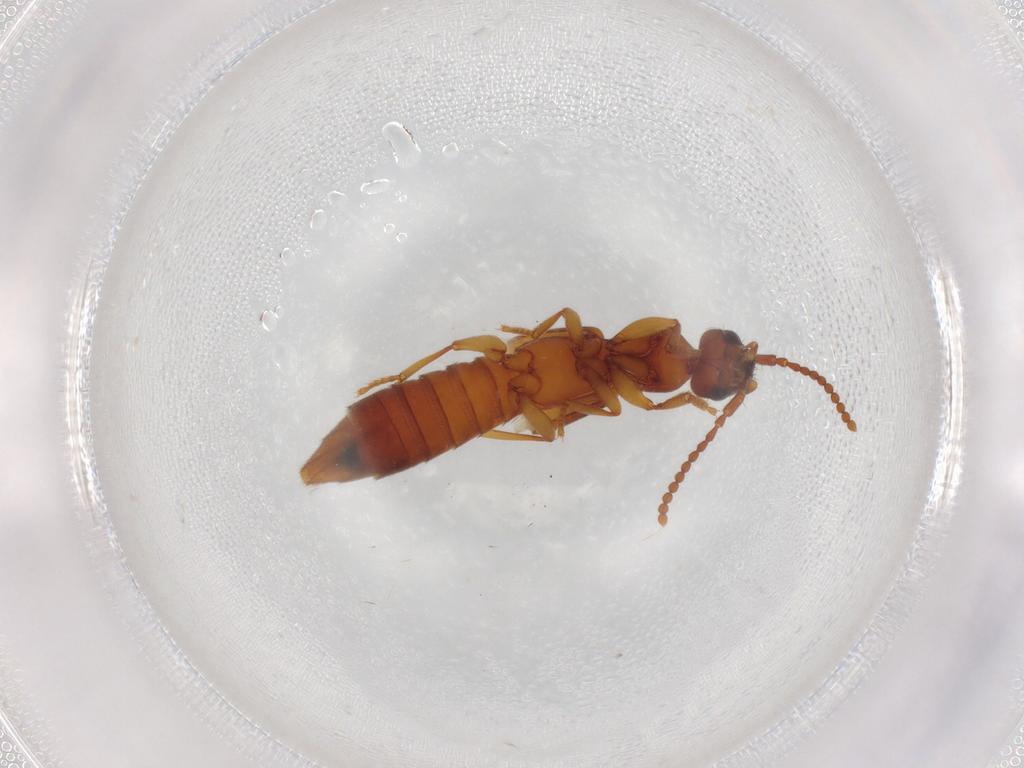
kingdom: Animalia
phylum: Arthropoda
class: Insecta
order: Coleoptera
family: Staphylinidae
